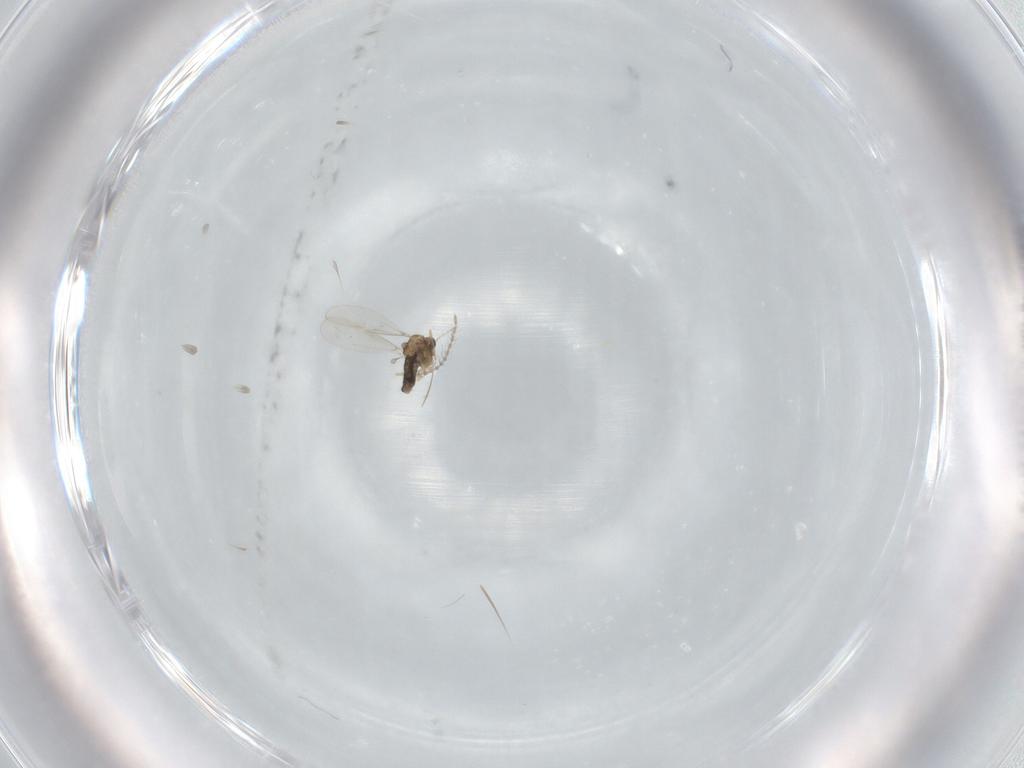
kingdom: Animalia
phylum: Arthropoda
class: Insecta
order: Diptera
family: Chironomidae
